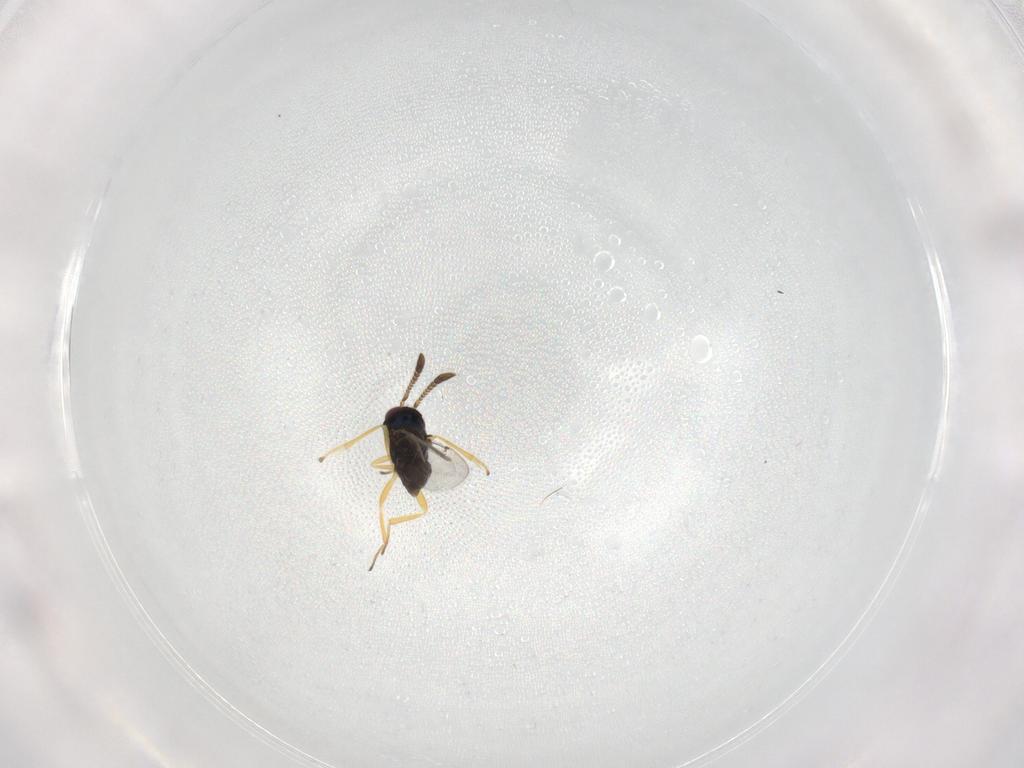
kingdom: Animalia
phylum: Arthropoda
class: Insecta
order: Hymenoptera
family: Encyrtidae
